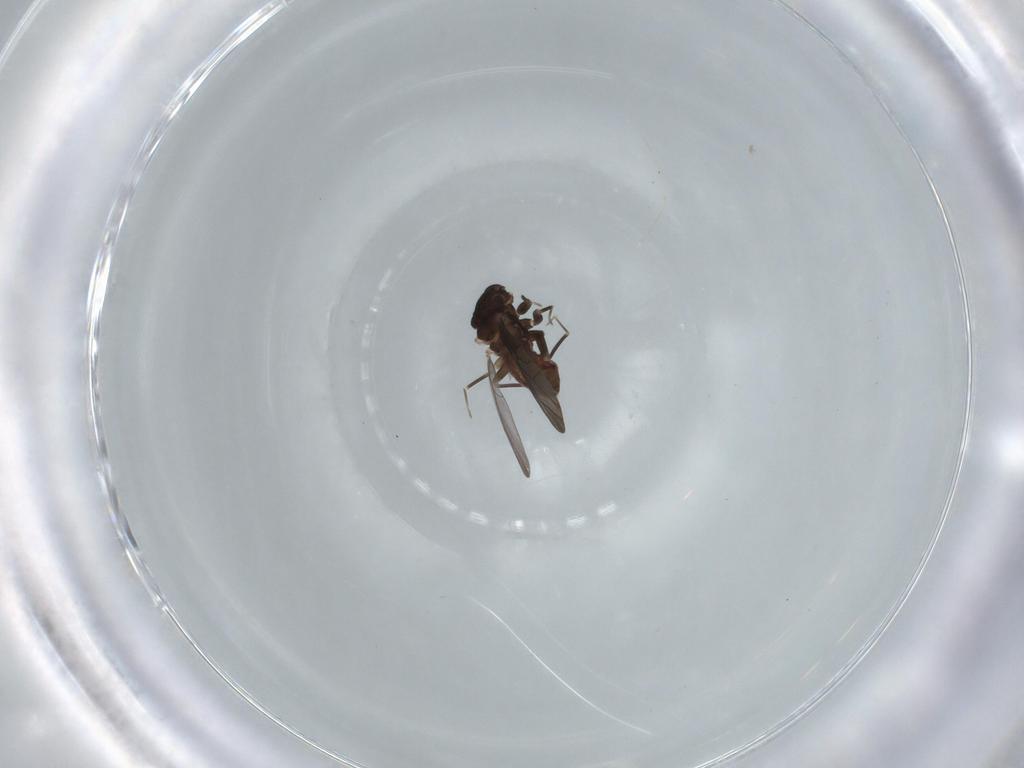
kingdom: Animalia
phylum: Arthropoda
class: Insecta
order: Psocodea
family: Lepidopsocidae
